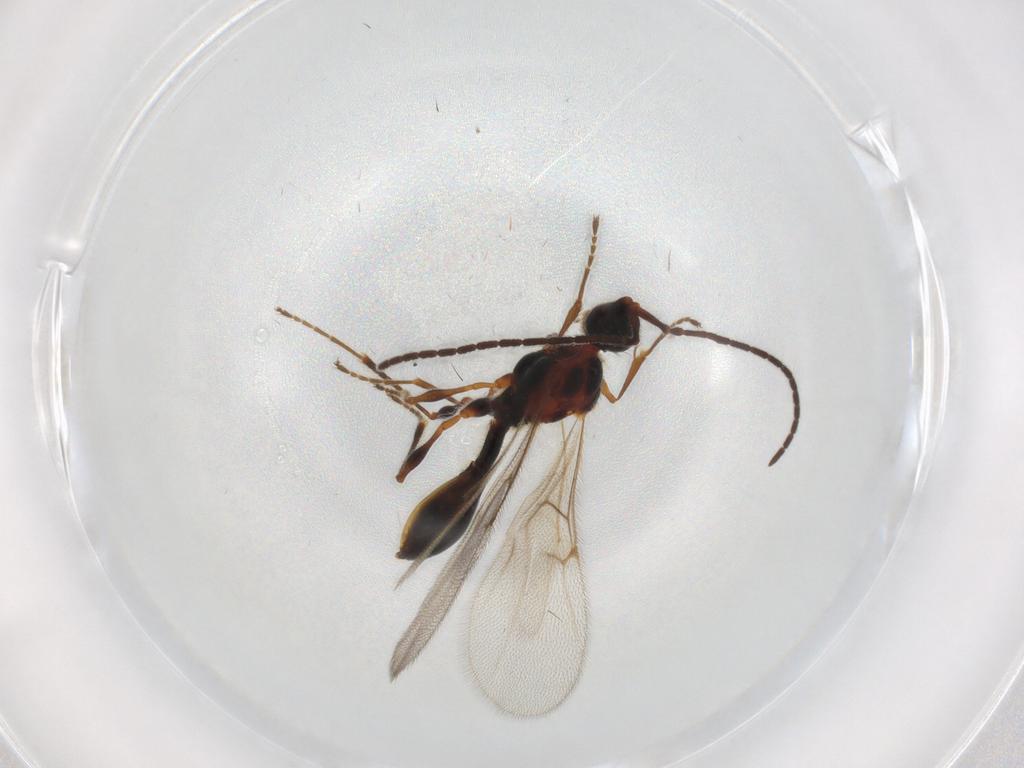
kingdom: Animalia
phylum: Arthropoda
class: Insecta
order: Hymenoptera
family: Diapriidae
